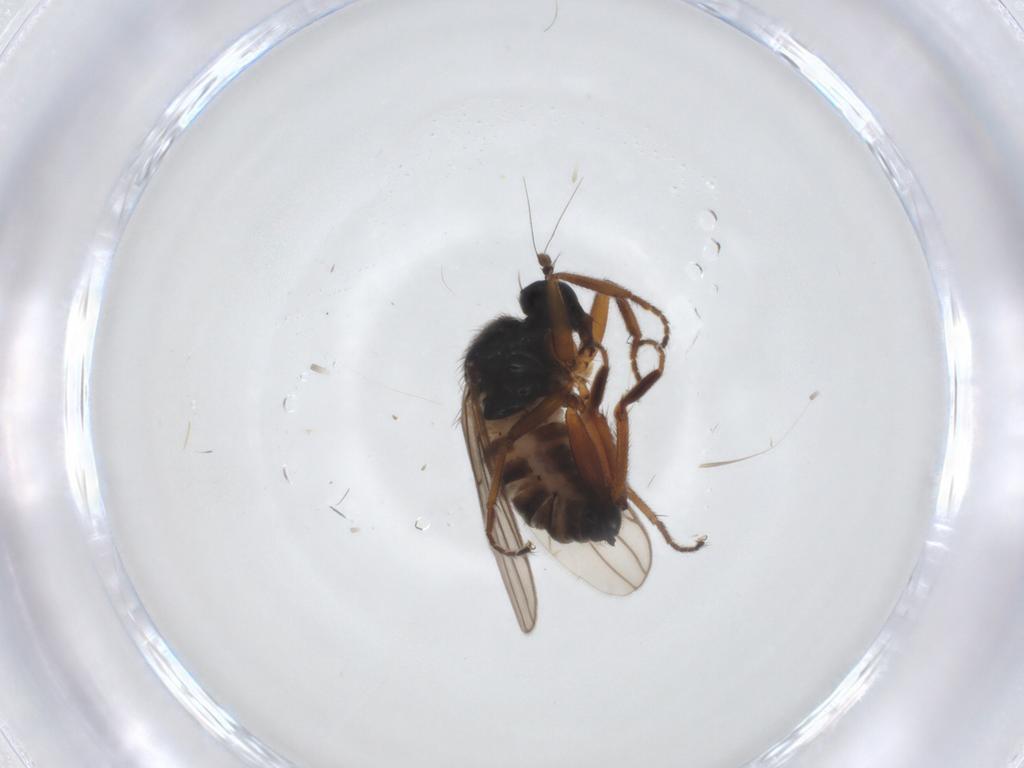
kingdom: Animalia
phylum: Arthropoda
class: Insecta
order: Diptera
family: Hybotidae
